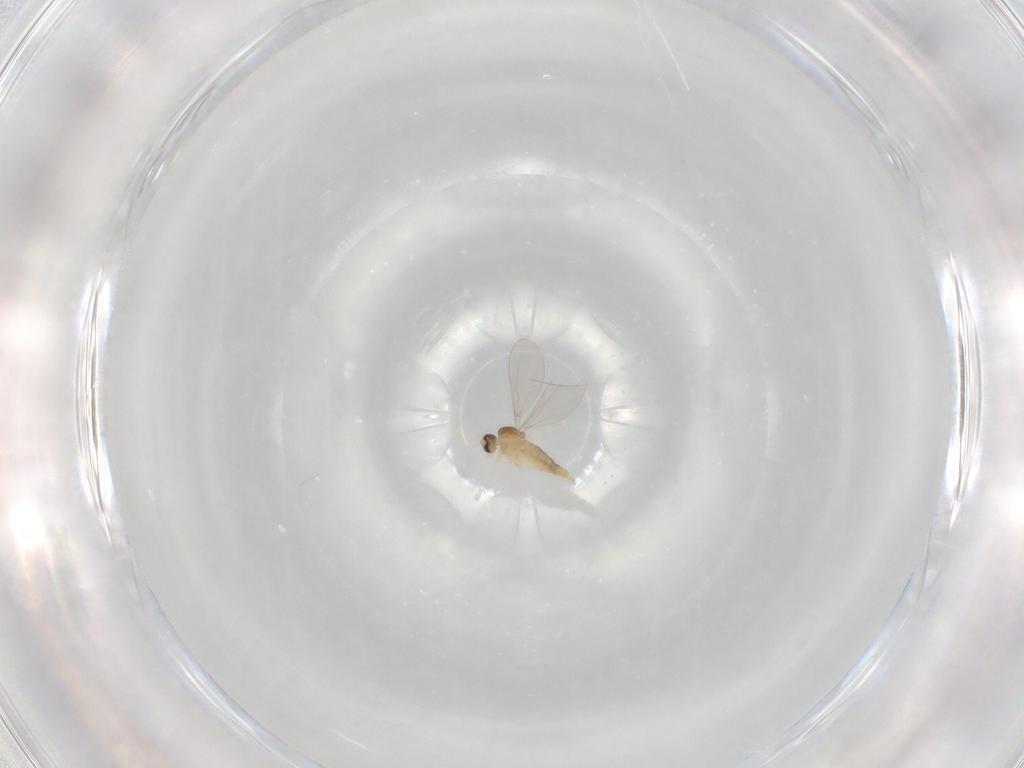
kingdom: Animalia
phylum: Arthropoda
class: Insecta
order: Diptera
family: Cecidomyiidae
